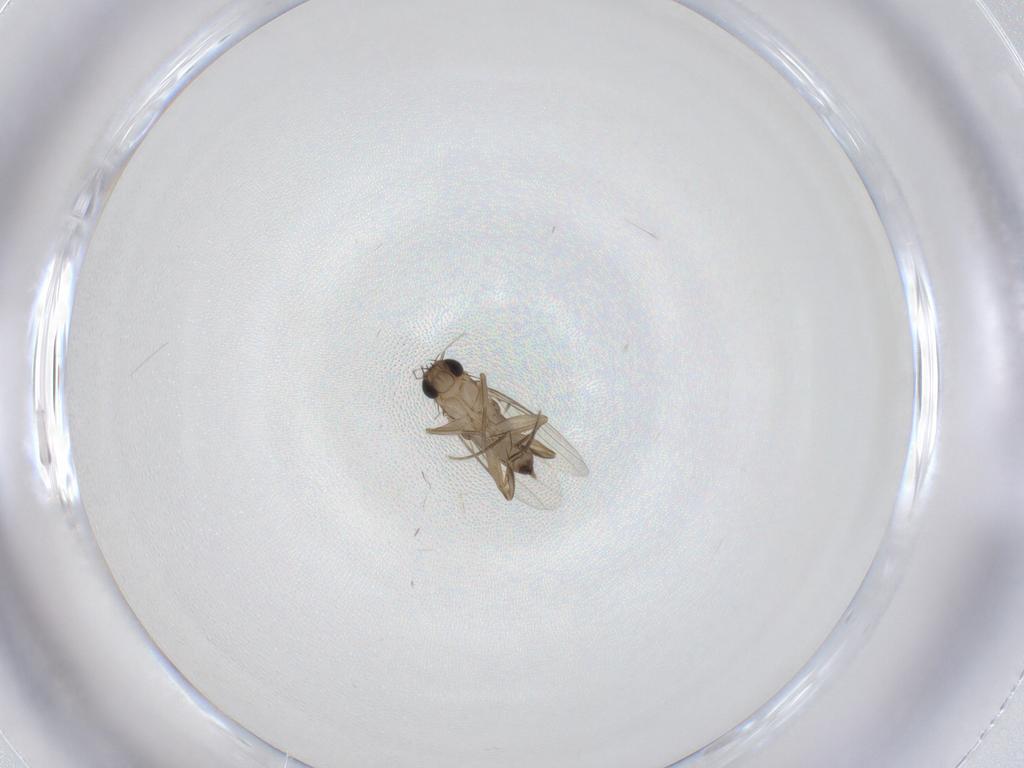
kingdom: Animalia
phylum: Arthropoda
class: Insecta
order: Diptera
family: Phoridae
